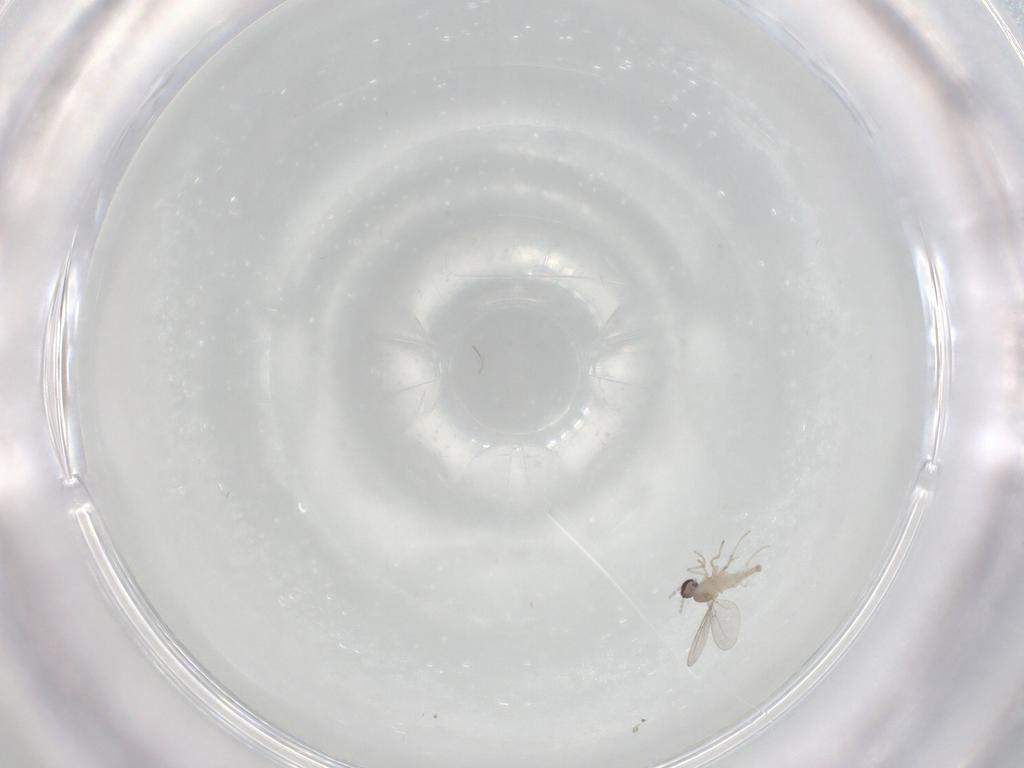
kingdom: Animalia
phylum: Arthropoda
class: Insecta
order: Diptera
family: Cecidomyiidae
